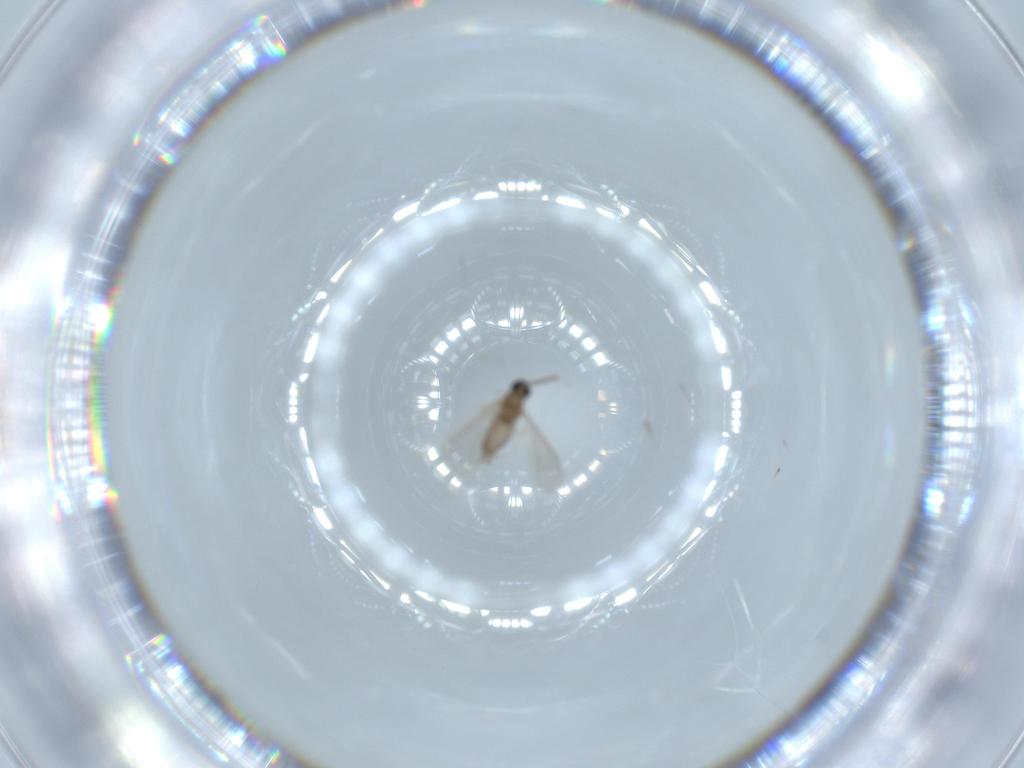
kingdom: Animalia
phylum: Arthropoda
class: Insecta
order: Diptera
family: Cecidomyiidae
